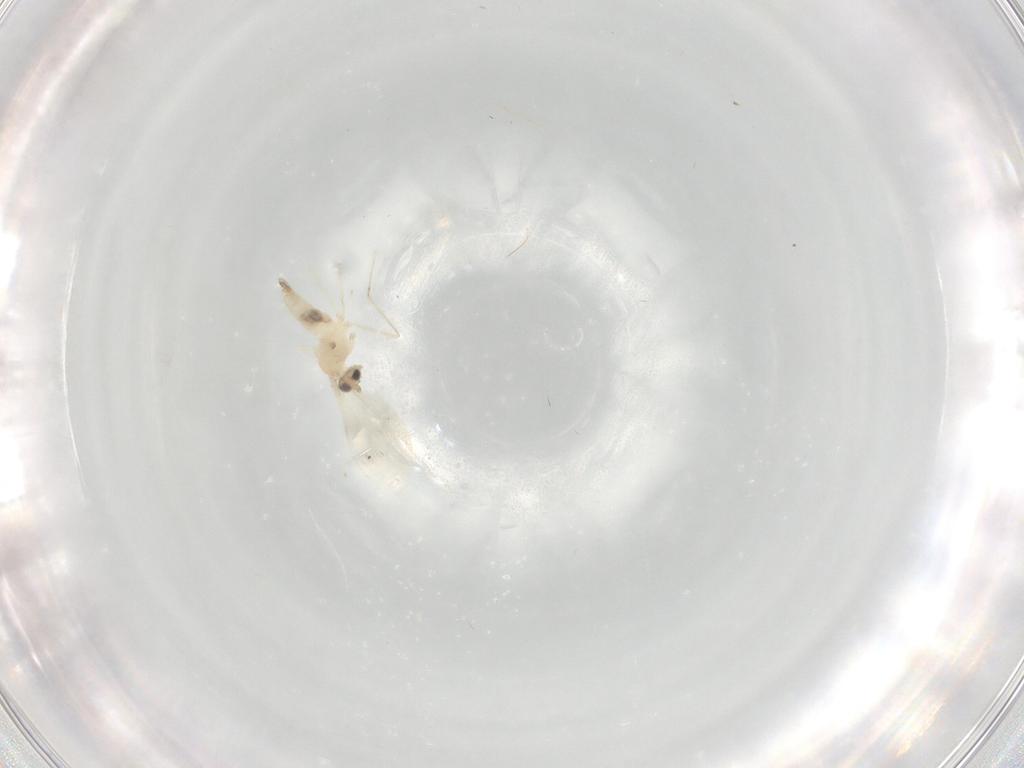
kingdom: Animalia
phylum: Arthropoda
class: Insecta
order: Diptera
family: Cecidomyiidae
